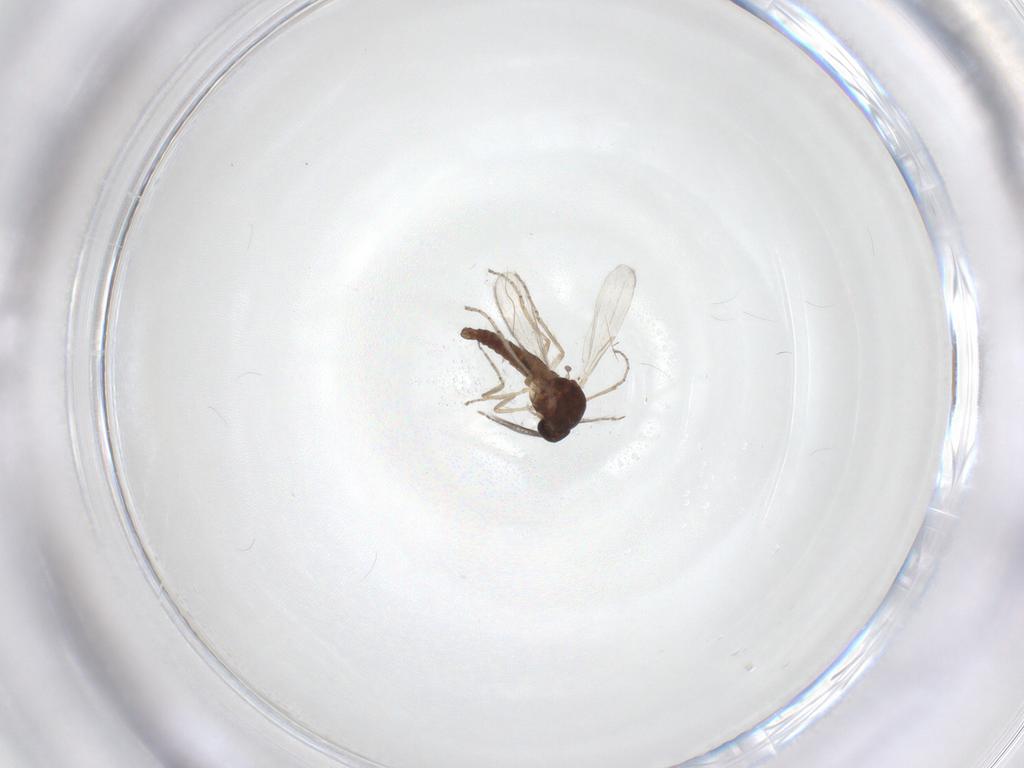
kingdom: Animalia
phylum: Arthropoda
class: Insecta
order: Diptera
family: Ceratopogonidae
